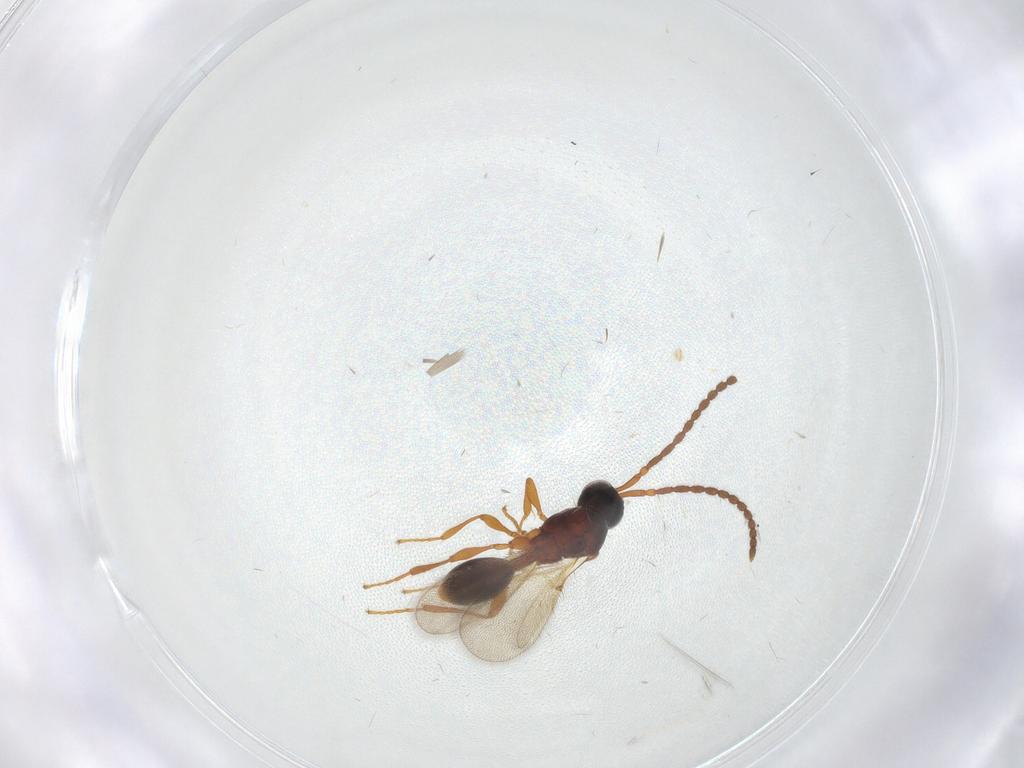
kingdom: Animalia
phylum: Arthropoda
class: Insecta
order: Hymenoptera
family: Diapriidae
